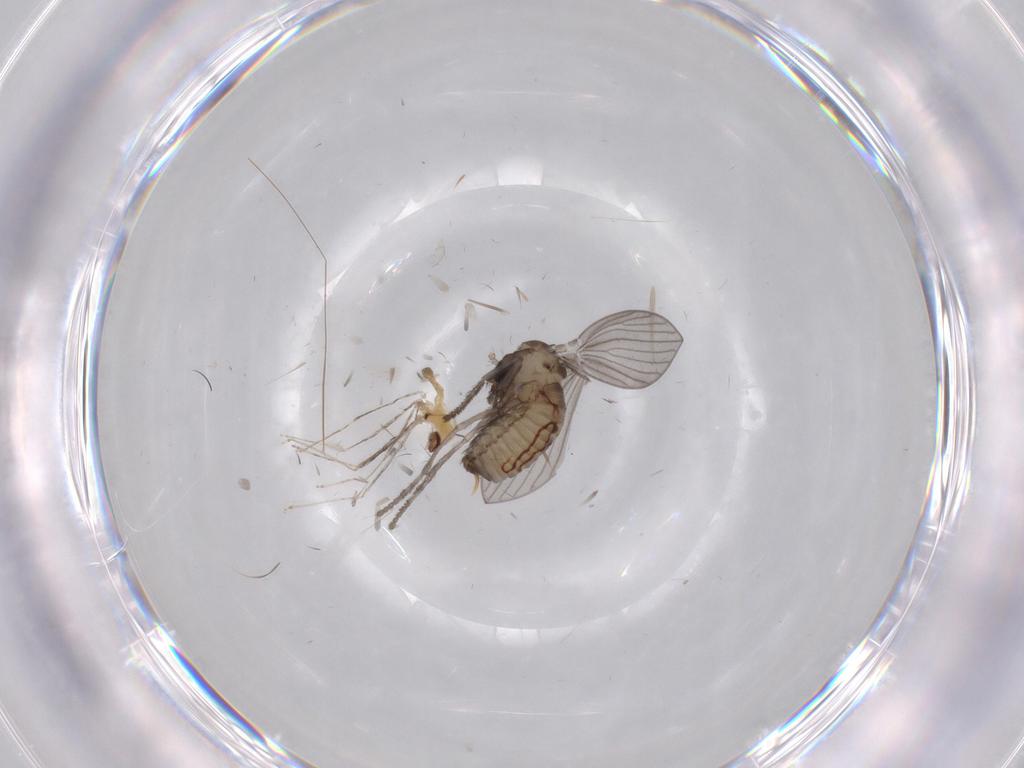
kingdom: Animalia
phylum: Arthropoda
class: Insecta
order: Diptera
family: Psychodidae
